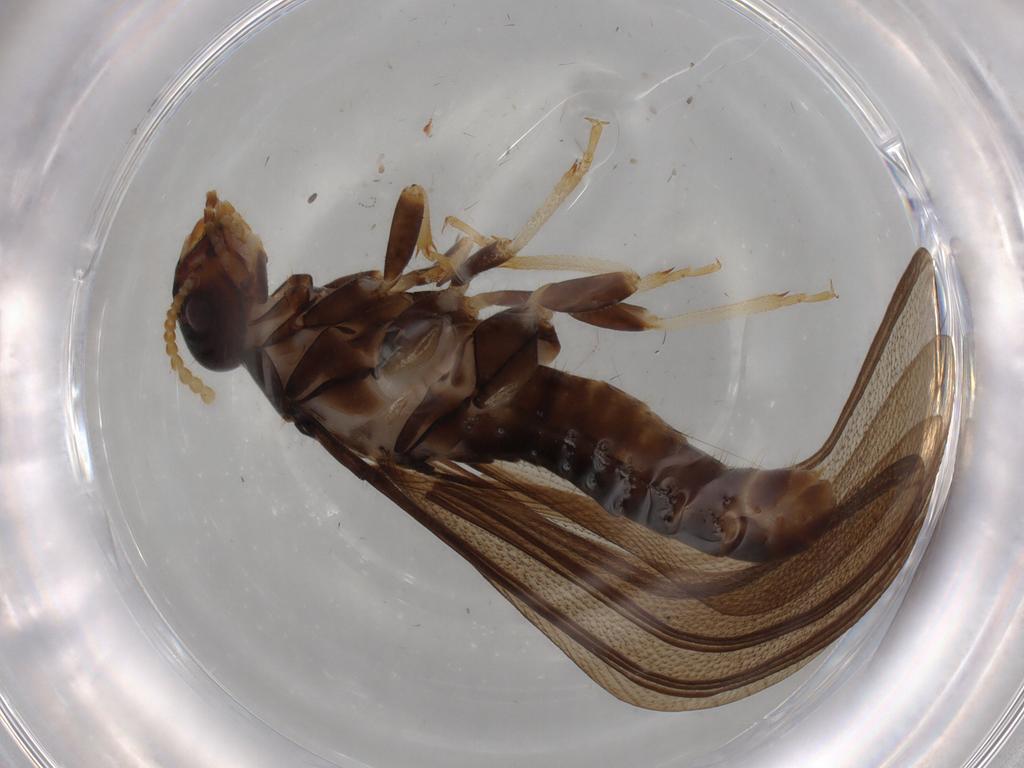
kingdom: Animalia
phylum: Arthropoda
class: Insecta
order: Blattodea
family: Kalotermitidae
